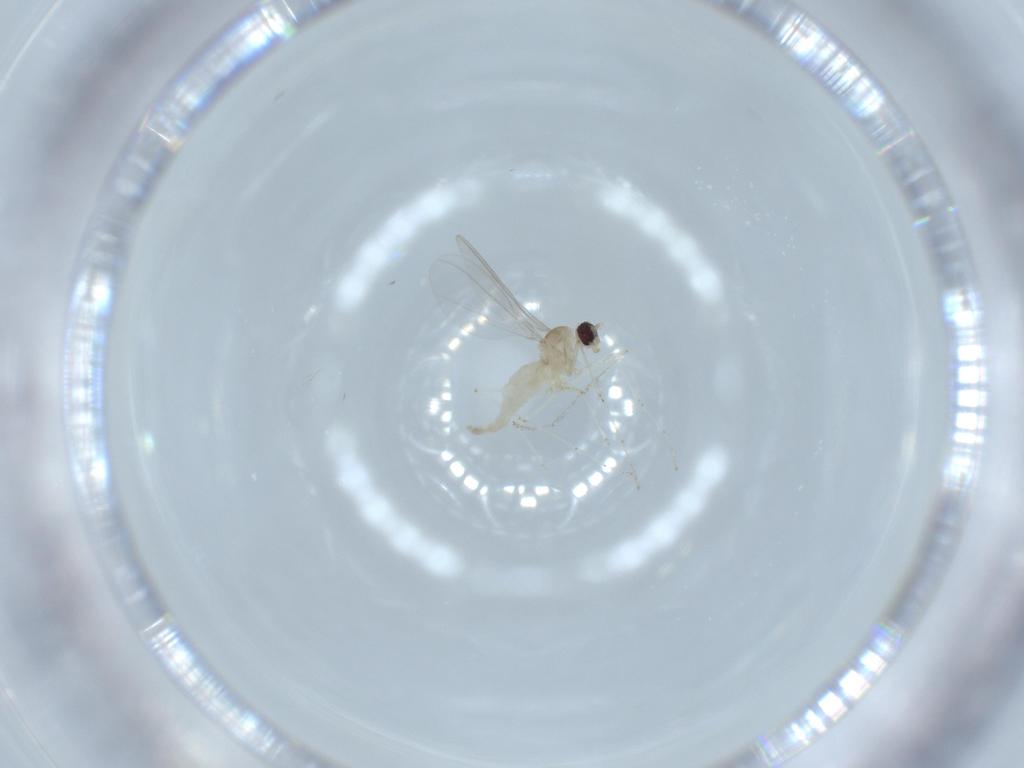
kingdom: Animalia
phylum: Arthropoda
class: Insecta
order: Diptera
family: Cecidomyiidae
